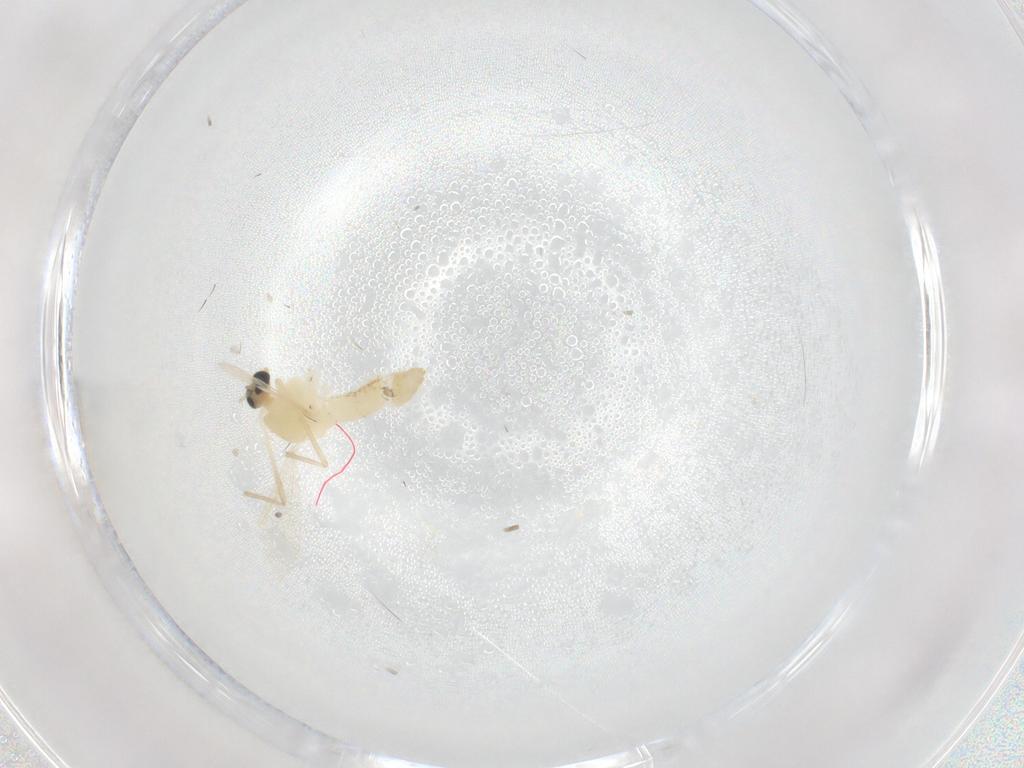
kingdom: Animalia
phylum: Arthropoda
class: Insecta
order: Diptera
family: Chironomidae
